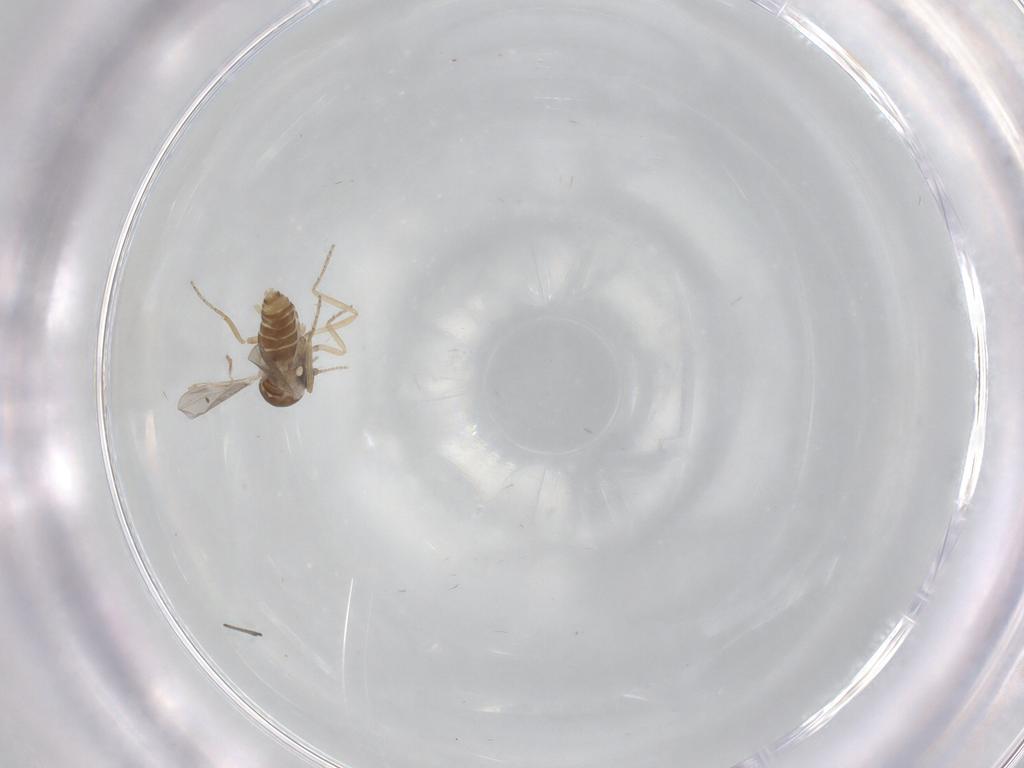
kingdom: Animalia
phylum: Arthropoda
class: Insecta
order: Diptera
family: Ceratopogonidae
